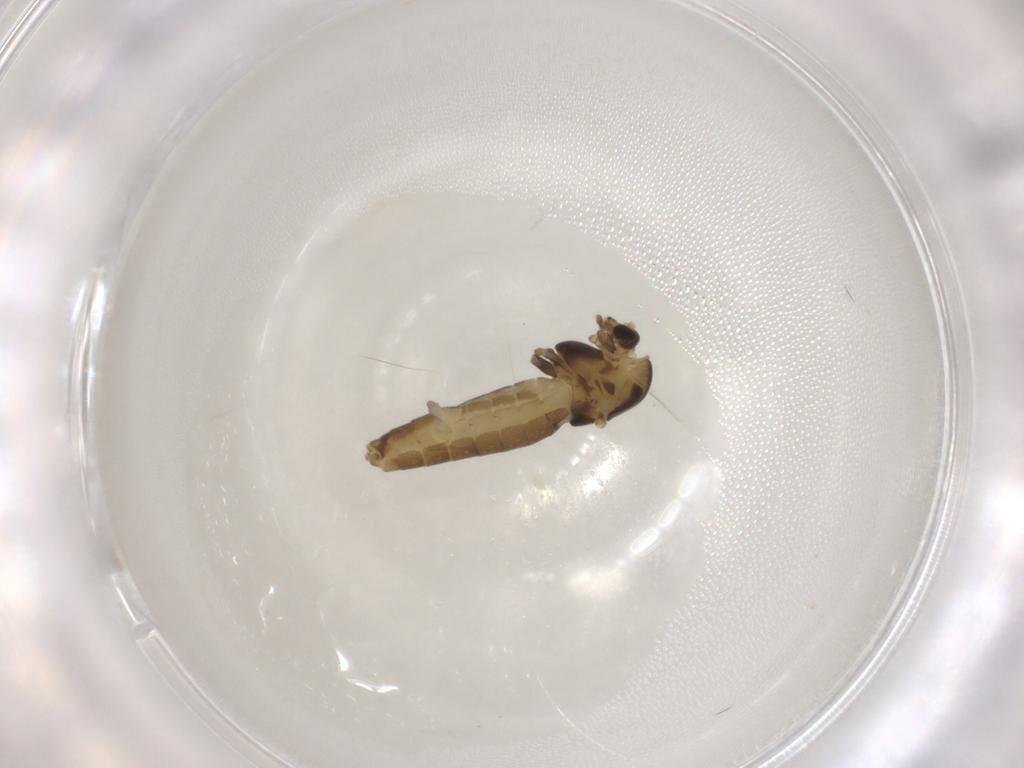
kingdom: Animalia
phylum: Arthropoda
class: Insecta
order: Diptera
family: Chironomidae
